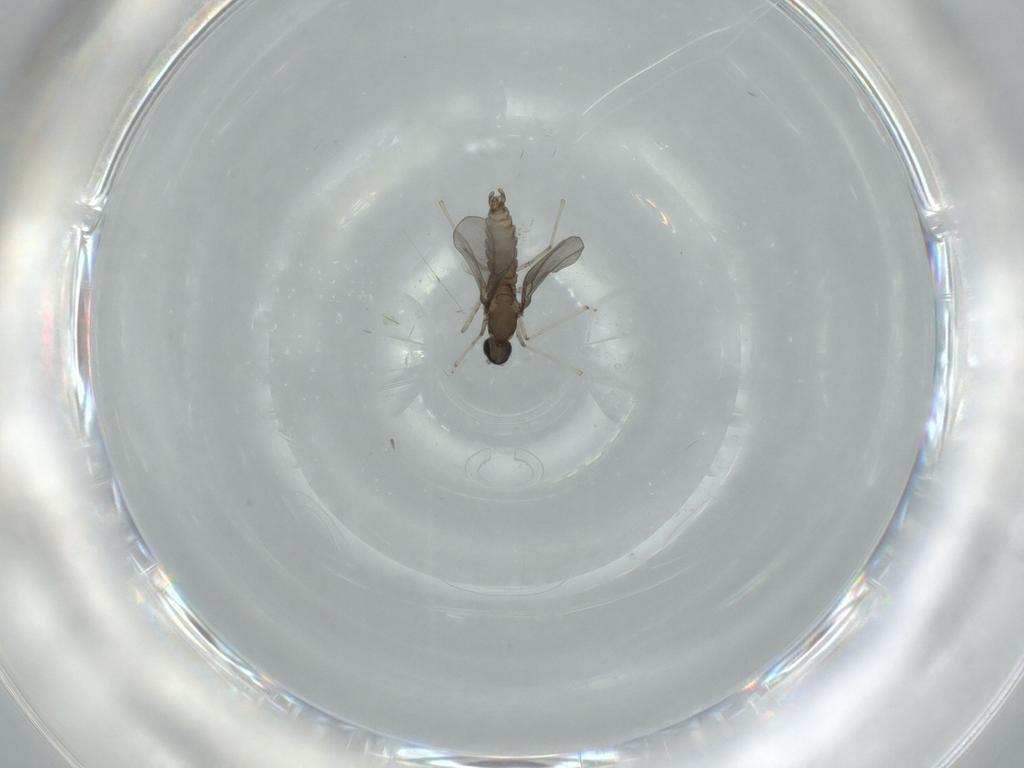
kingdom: Animalia
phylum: Arthropoda
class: Insecta
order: Diptera
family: Cecidomyiidae
